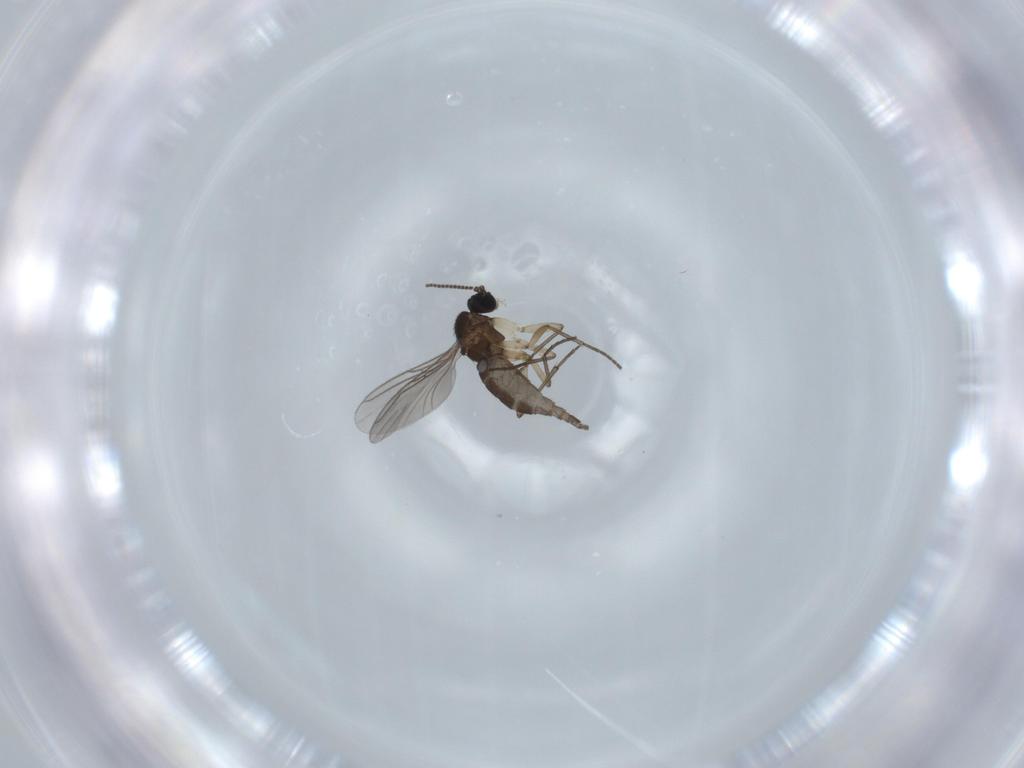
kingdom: Animalia
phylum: Arthropoda
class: Insecta
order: Diptera
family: Sciaridae
